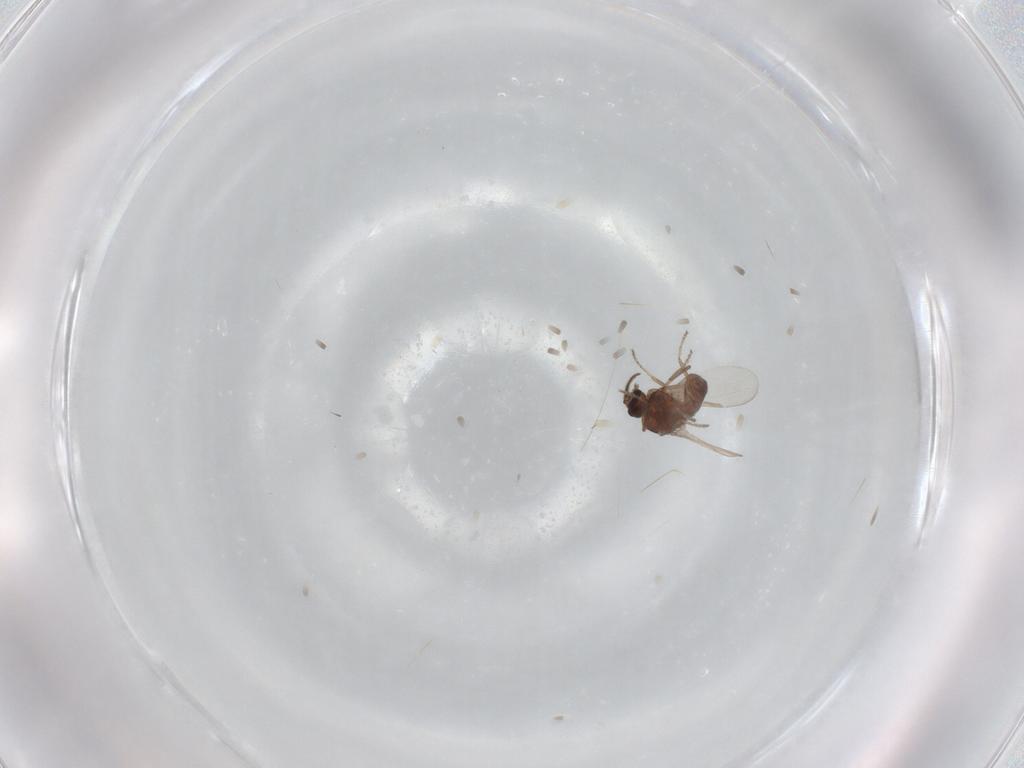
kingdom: Animalia
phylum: Arthropoda
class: Insecta
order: Diptera
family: Ceratopogonidae
